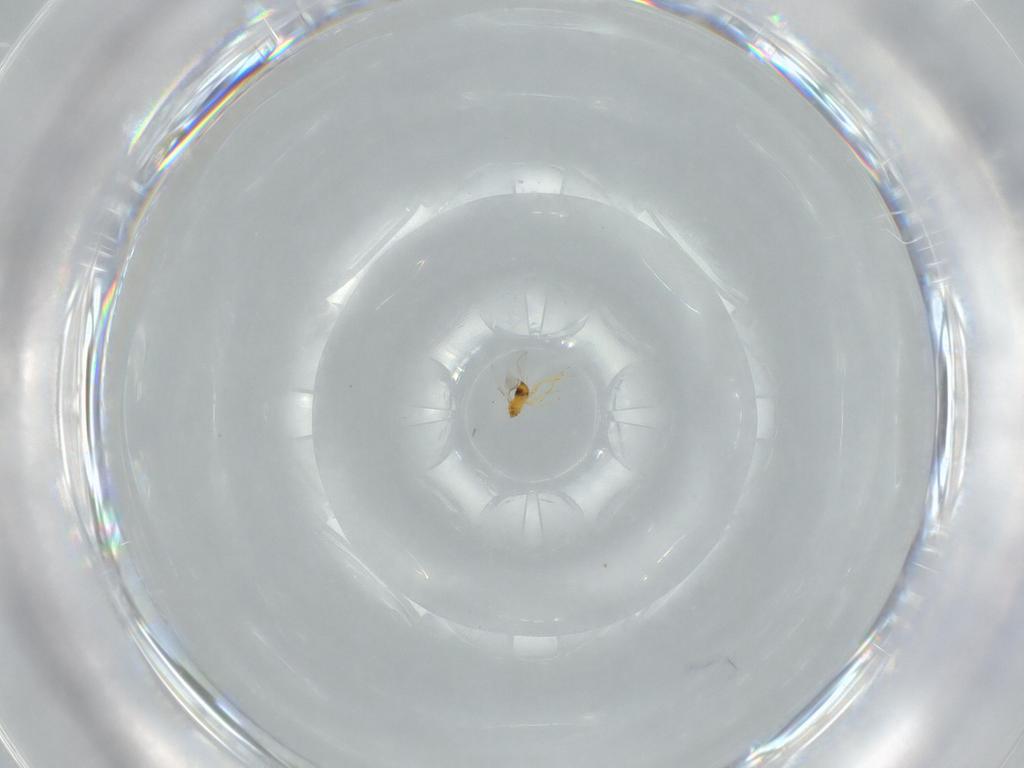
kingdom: Animalia
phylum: Arthropoda
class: Insecta
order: Hymenoptera
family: Trichogrammatidae
